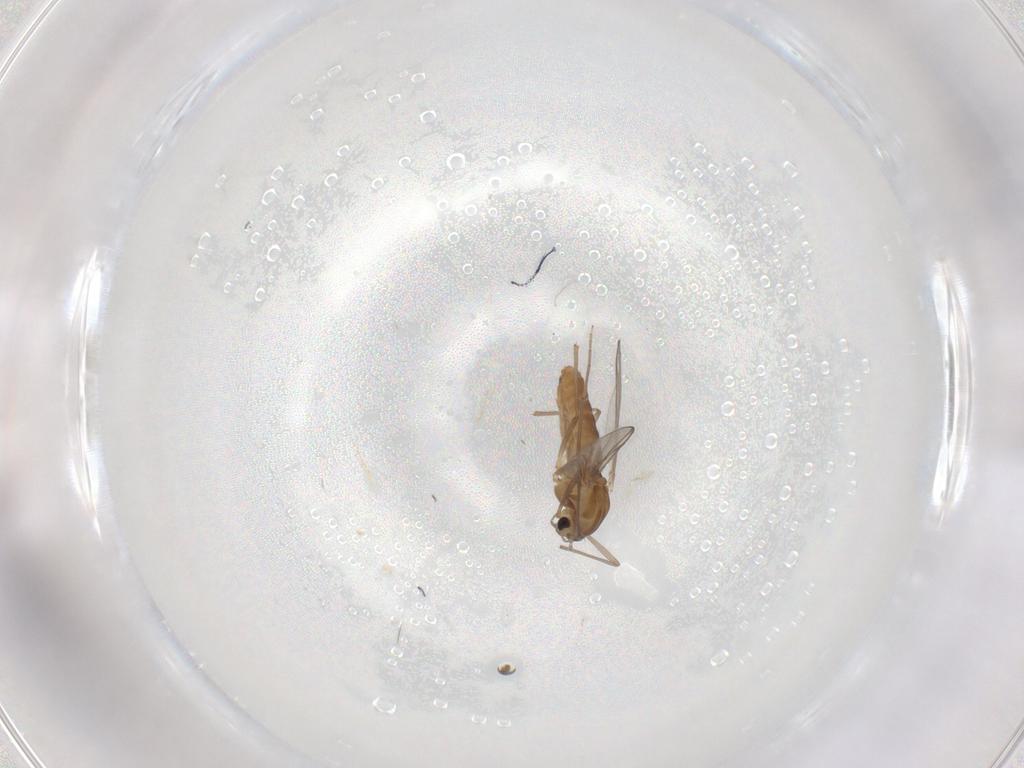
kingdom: Animalia
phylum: Arthropoda
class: Insecta
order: Diptera
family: Chironomidae
